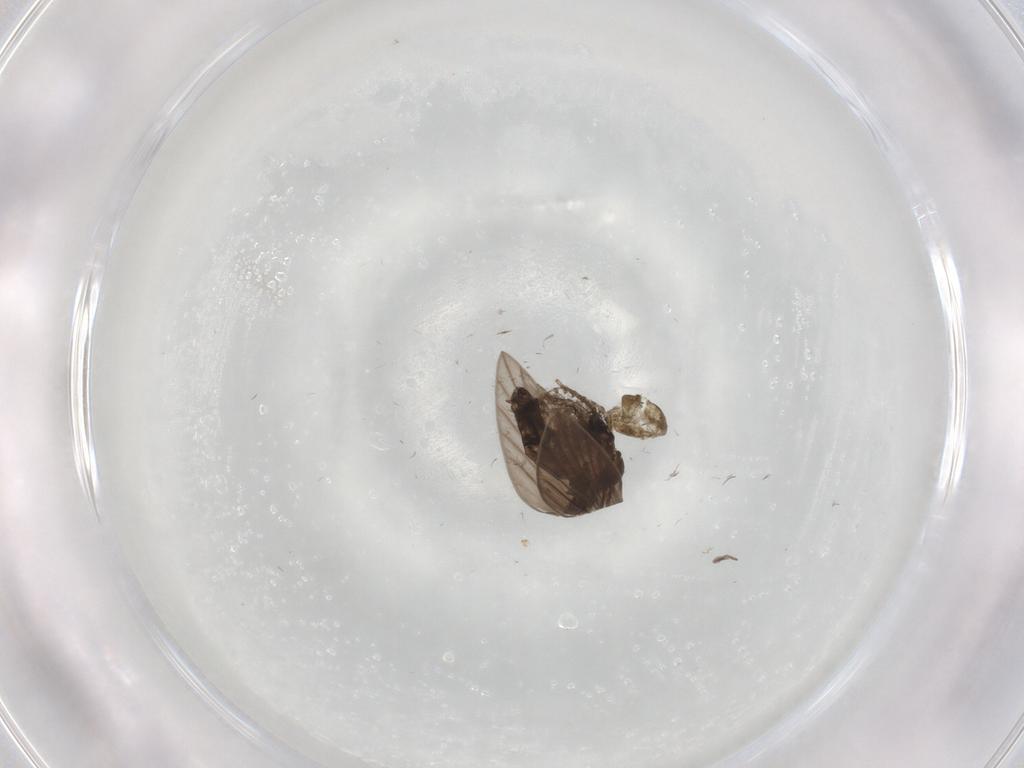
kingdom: Animalia
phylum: Arthropoda
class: Insecta
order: Diptera
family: Psychodidae
